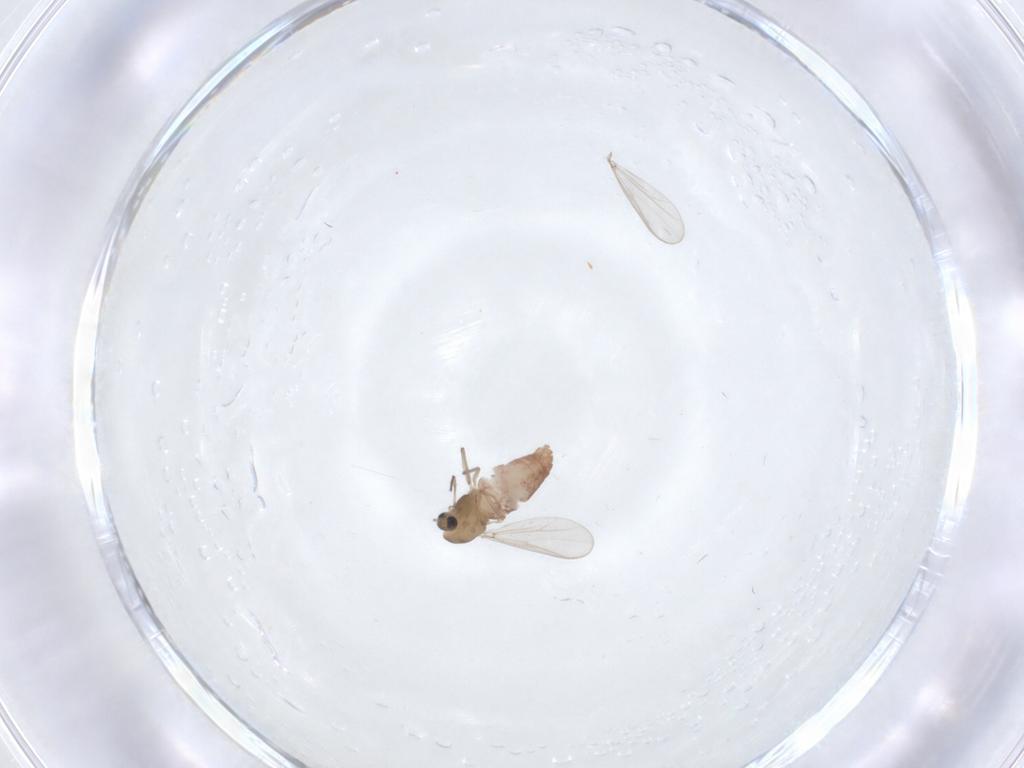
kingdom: Animalia
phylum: Arthropoda
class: Insecta
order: Diptera
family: Chironomidae
